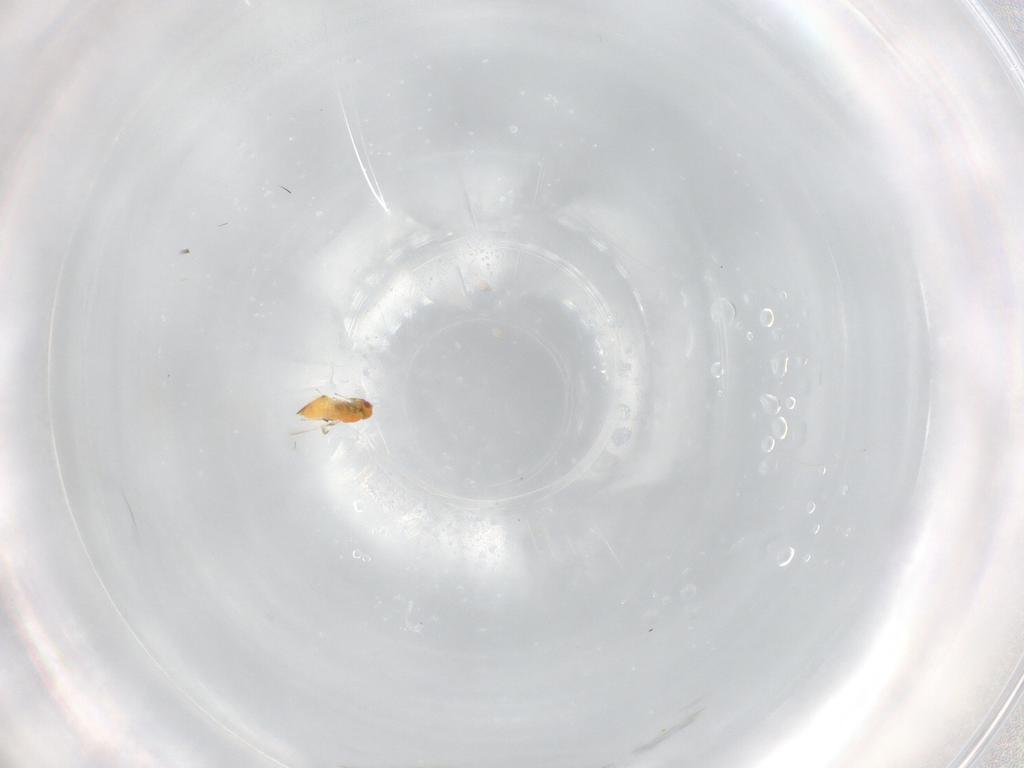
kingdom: Animalia
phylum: Arthropoda
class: Insecta
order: Hymenoptera
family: Trichogrammatidae
